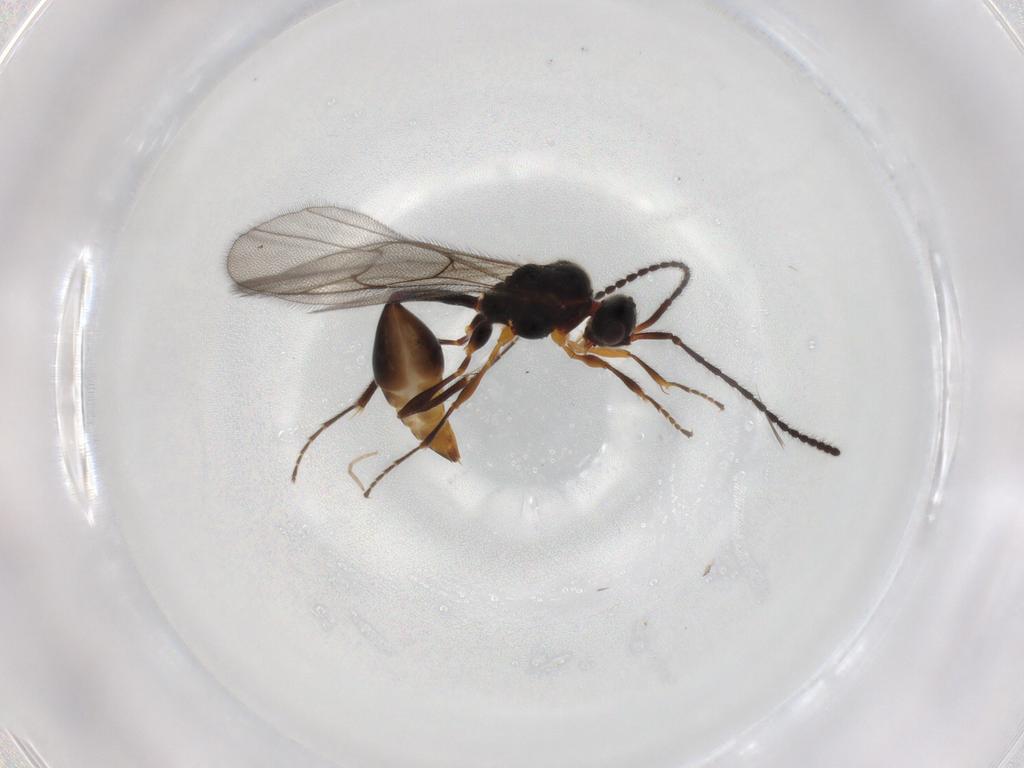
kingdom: Animalia
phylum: Arthropoda
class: Insecta
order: Hymenoptera
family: Diapriidae
